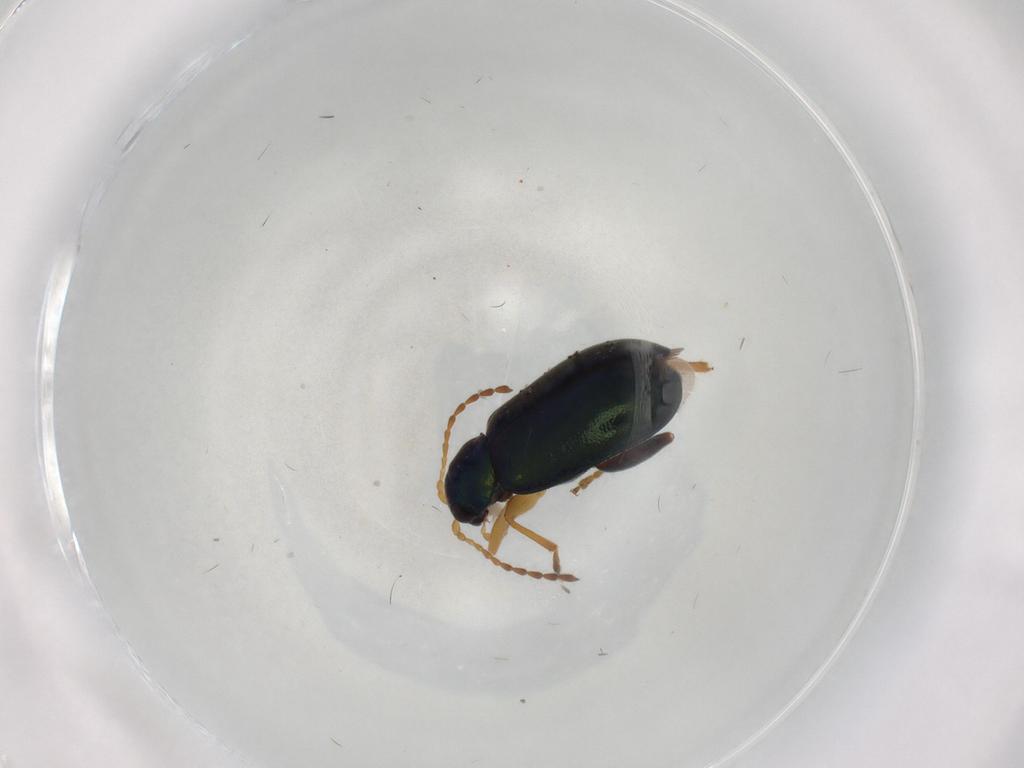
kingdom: Animalia
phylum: Arthropoda
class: Insecta
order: Coleoptera
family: Chrysomelidae
